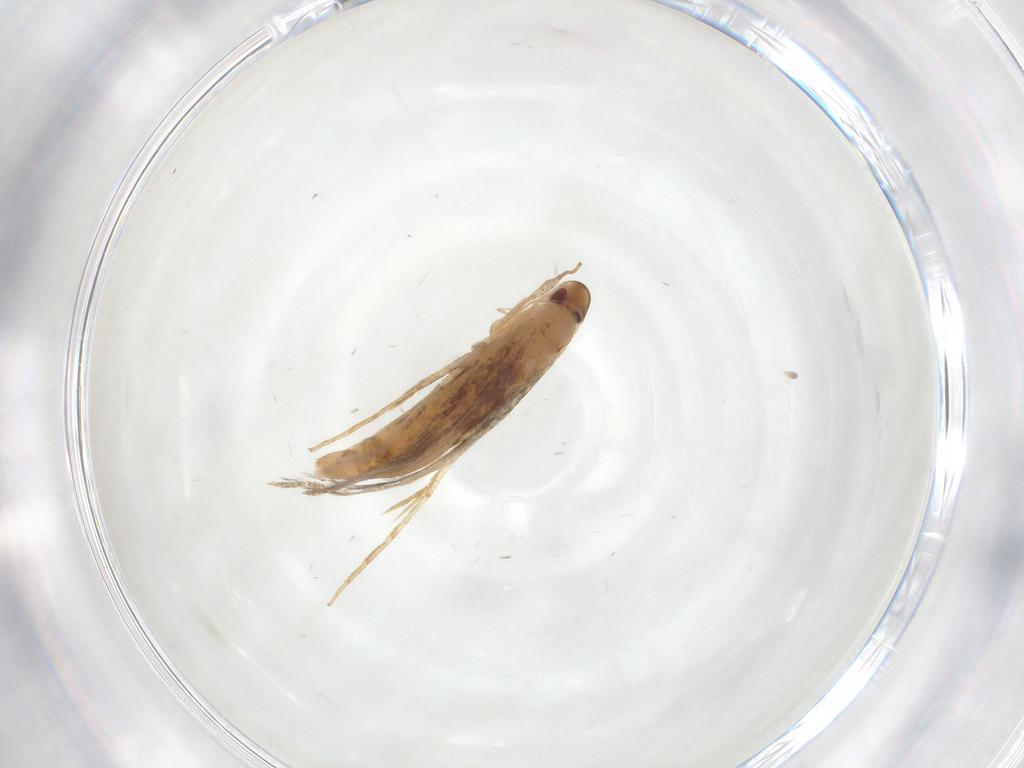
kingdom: Animalia
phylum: Arthropoda
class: Insecta
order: Lepidoptera
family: Cosmopterigidae
